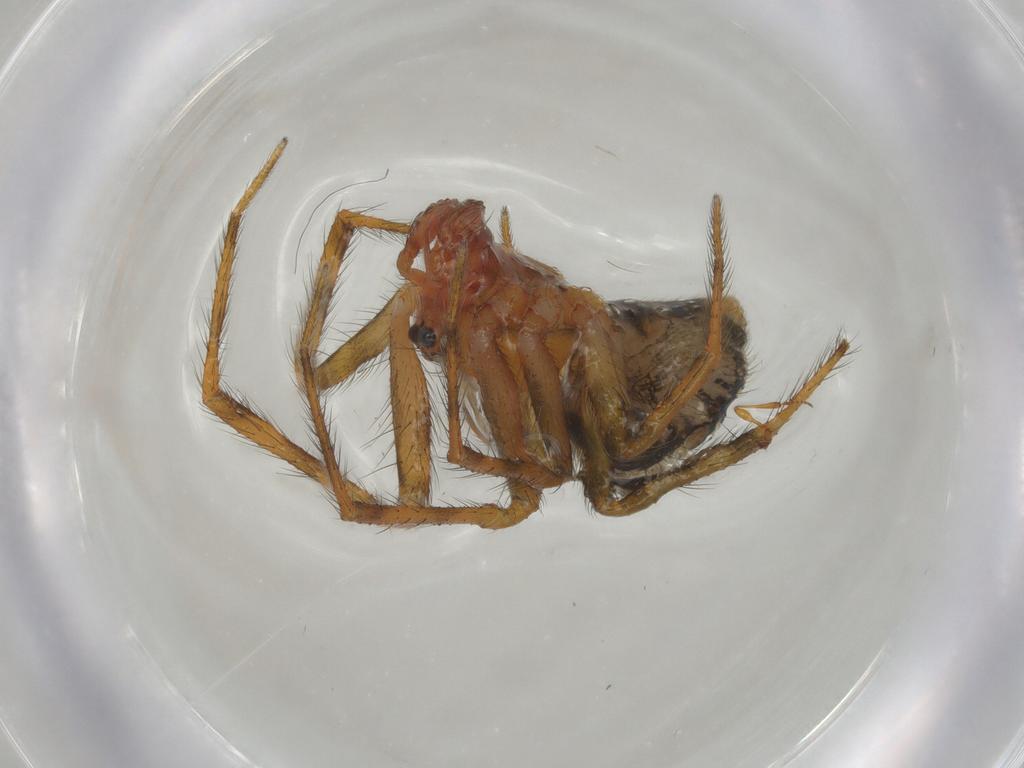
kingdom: Animalia
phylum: Arthropoda
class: Arachnida
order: Araneae
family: Theridiidae
